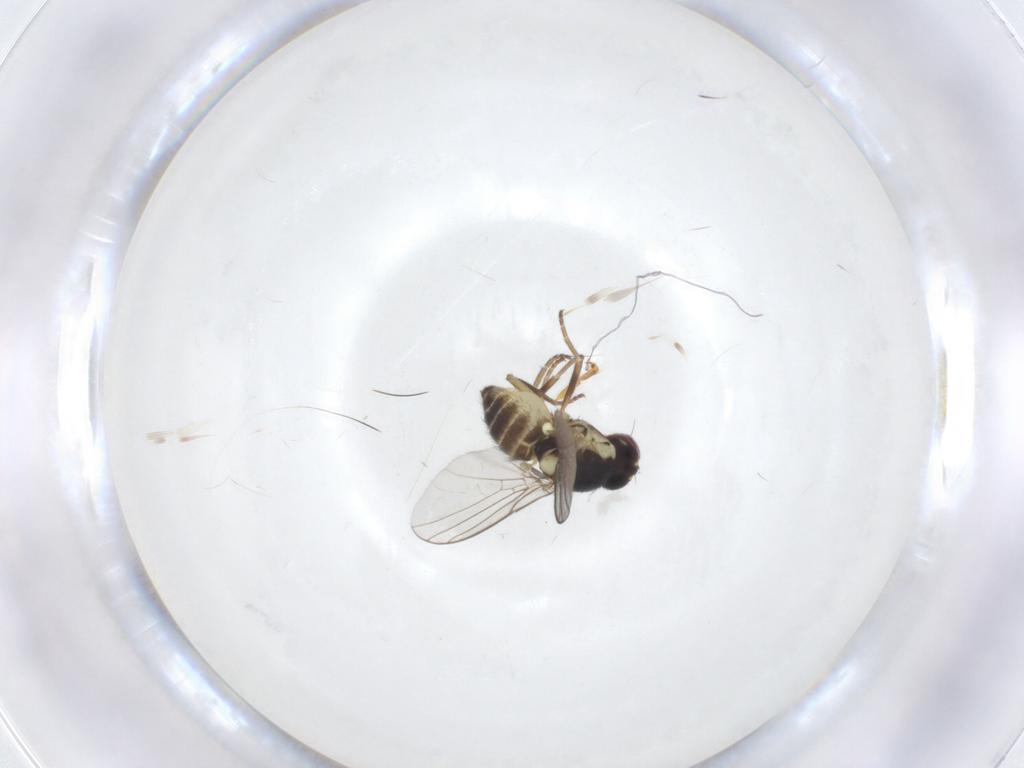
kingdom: Animalia
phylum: Arthropoda
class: Insecta
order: Diptera
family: Agromyzidae
